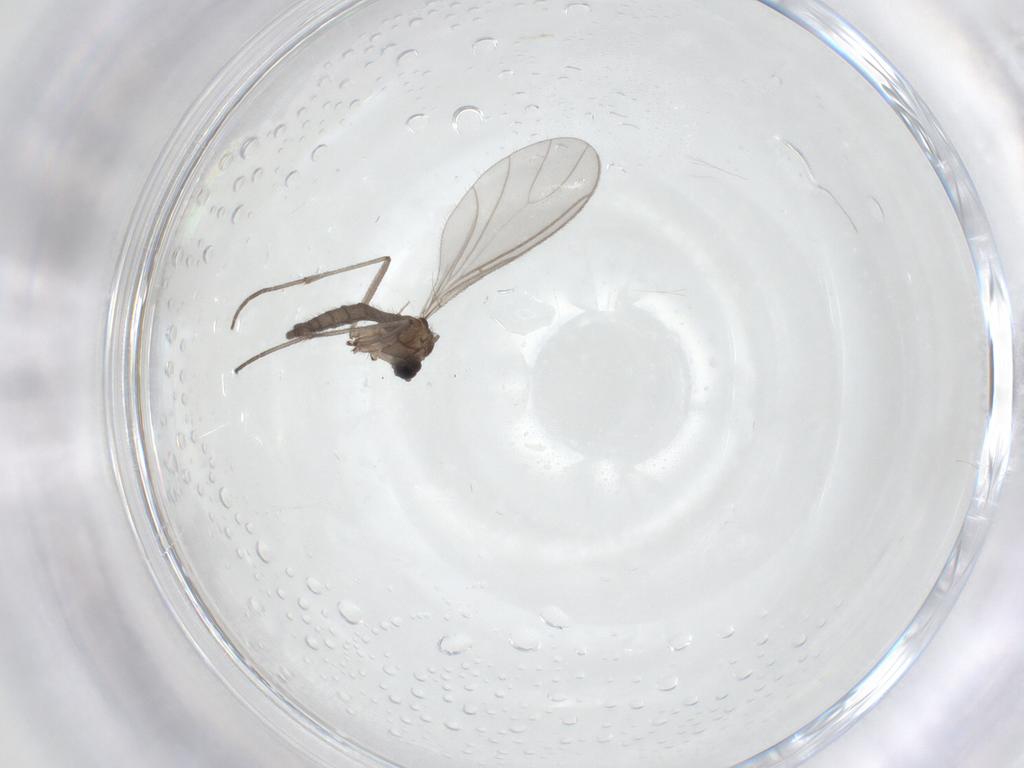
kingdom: Animalia
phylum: Arthropoda
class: Insecta
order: Diptera
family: Sciaridae
